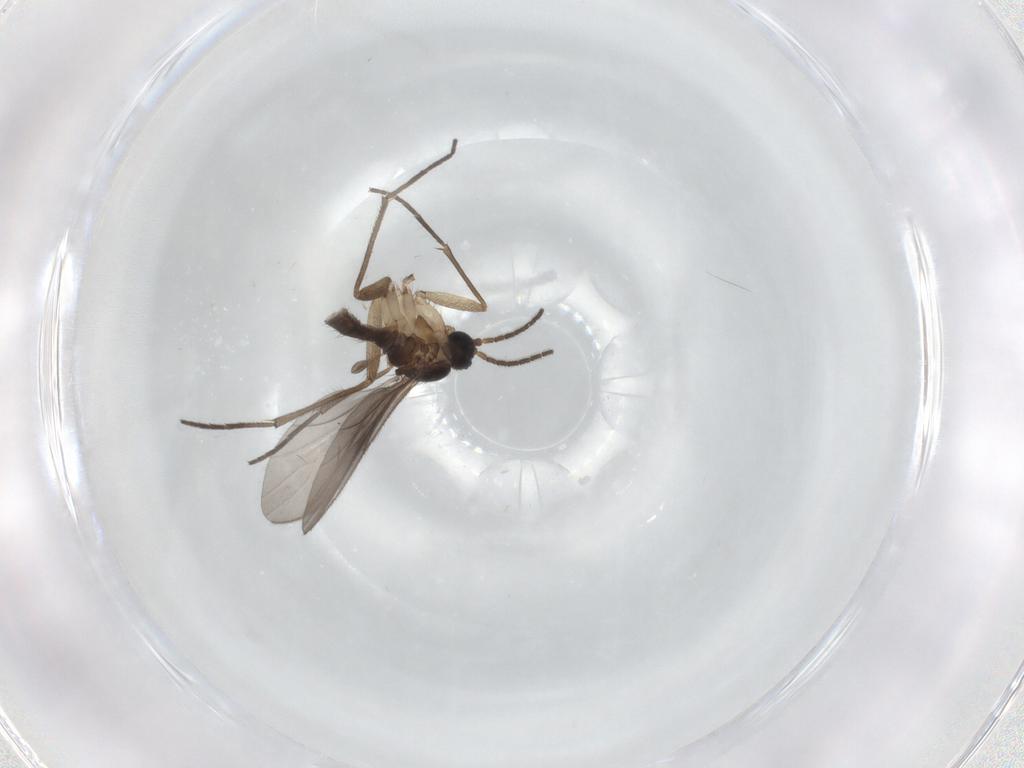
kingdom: Animalia
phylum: Arthropoda
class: Insecta
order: Diptera
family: Sciaridae
